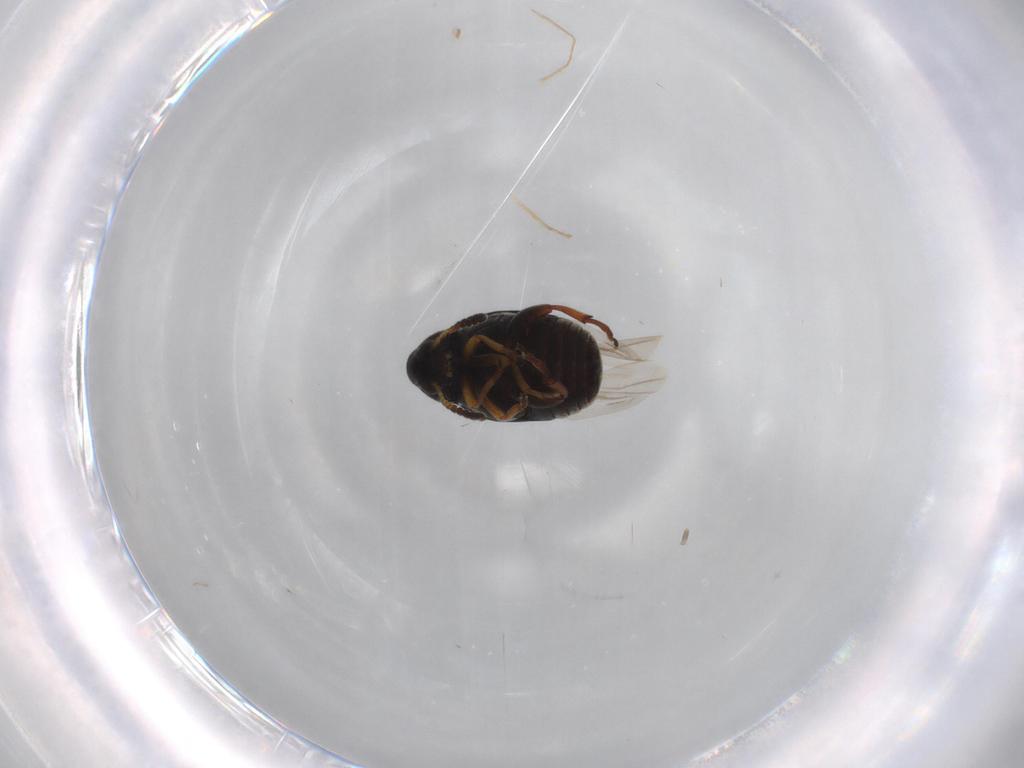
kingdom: Animalia
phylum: Arthropoda
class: Insecta
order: Coleoptera
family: Chrysomelidae
